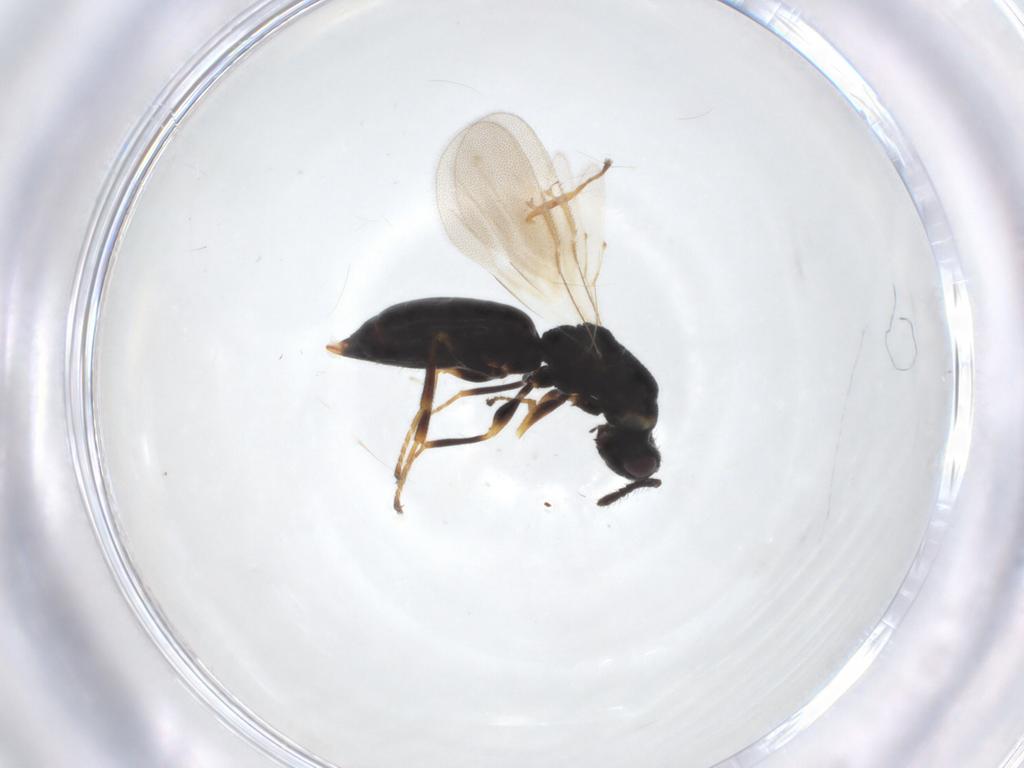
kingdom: Animalia
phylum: Arthropoda
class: Insecta
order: Hymenoptera
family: Eurytomidae
